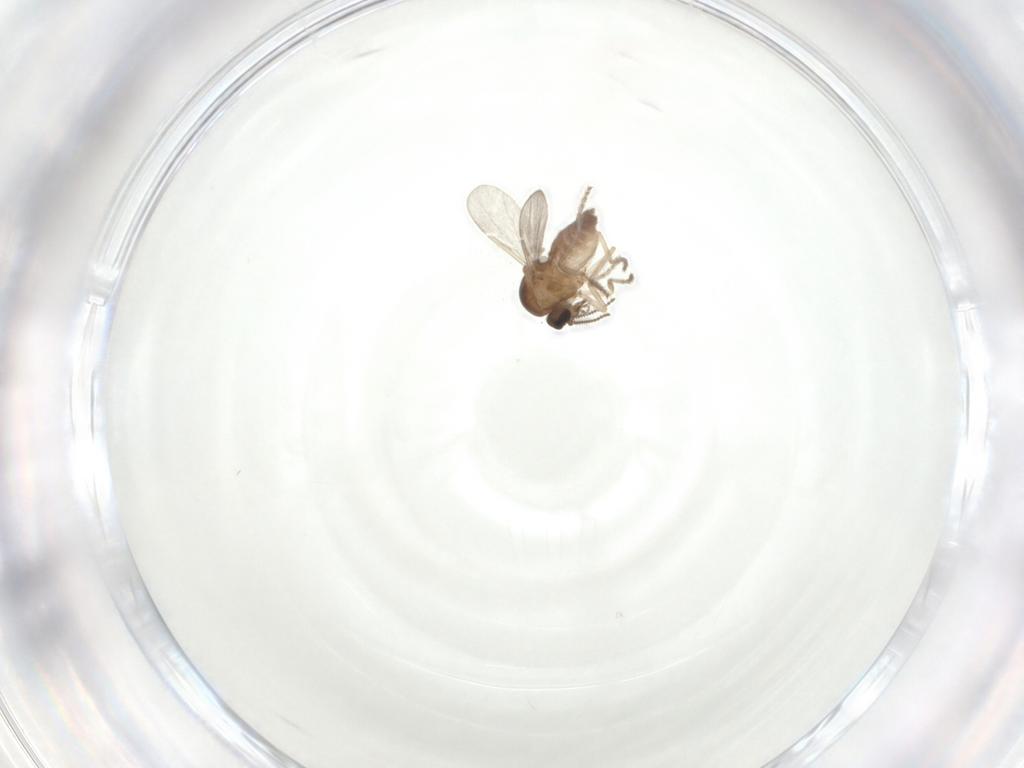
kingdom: Animalia
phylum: Arthropoda
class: Insecta
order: Diptera
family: Ceratopogonidae
